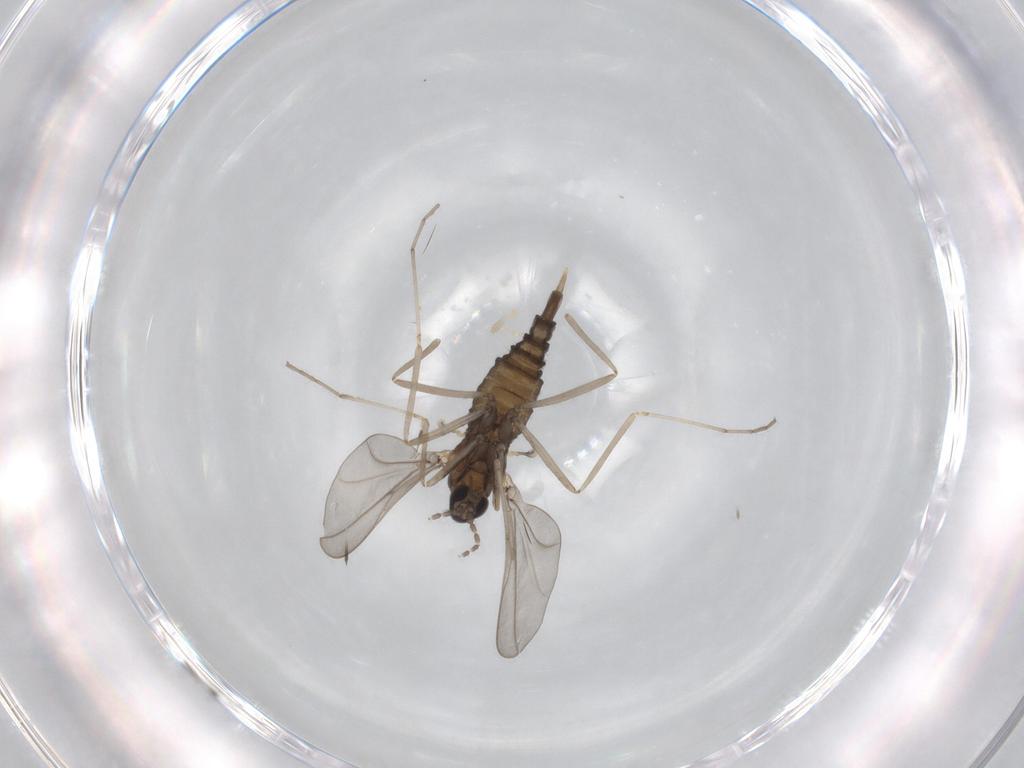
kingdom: Animalia
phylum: Arthropoda
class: Insecta
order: Diptera
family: Cecidomyiidae
